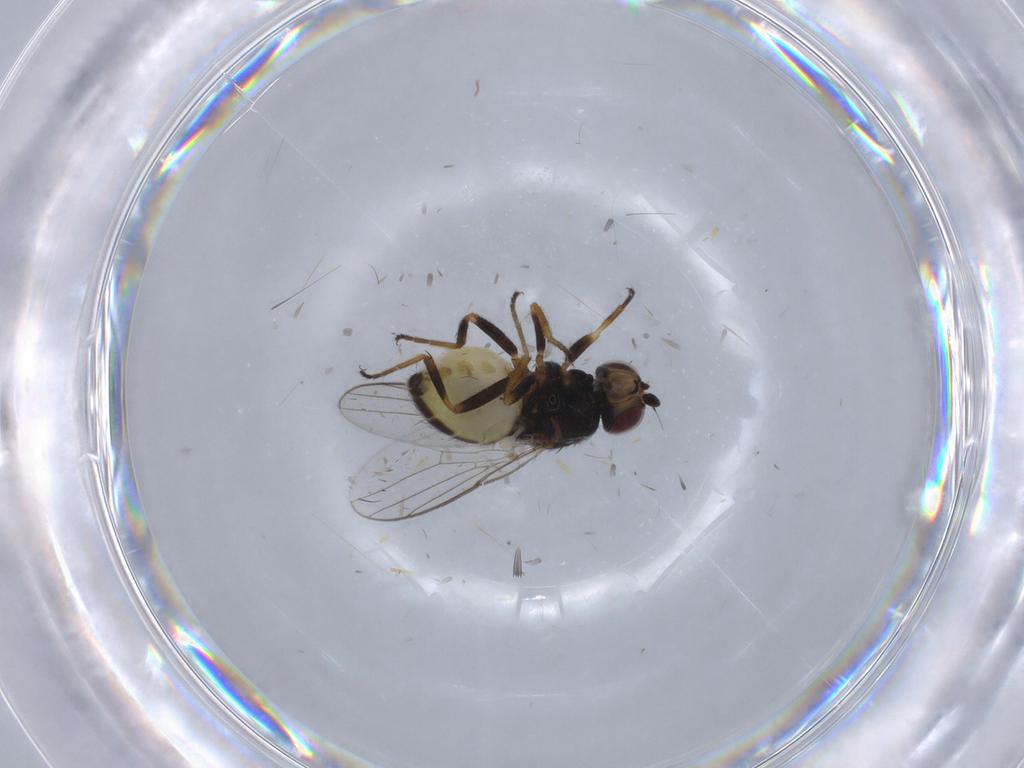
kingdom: Animalia
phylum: Arthropoda
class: Insecta
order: Diptera
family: Chloropidae
